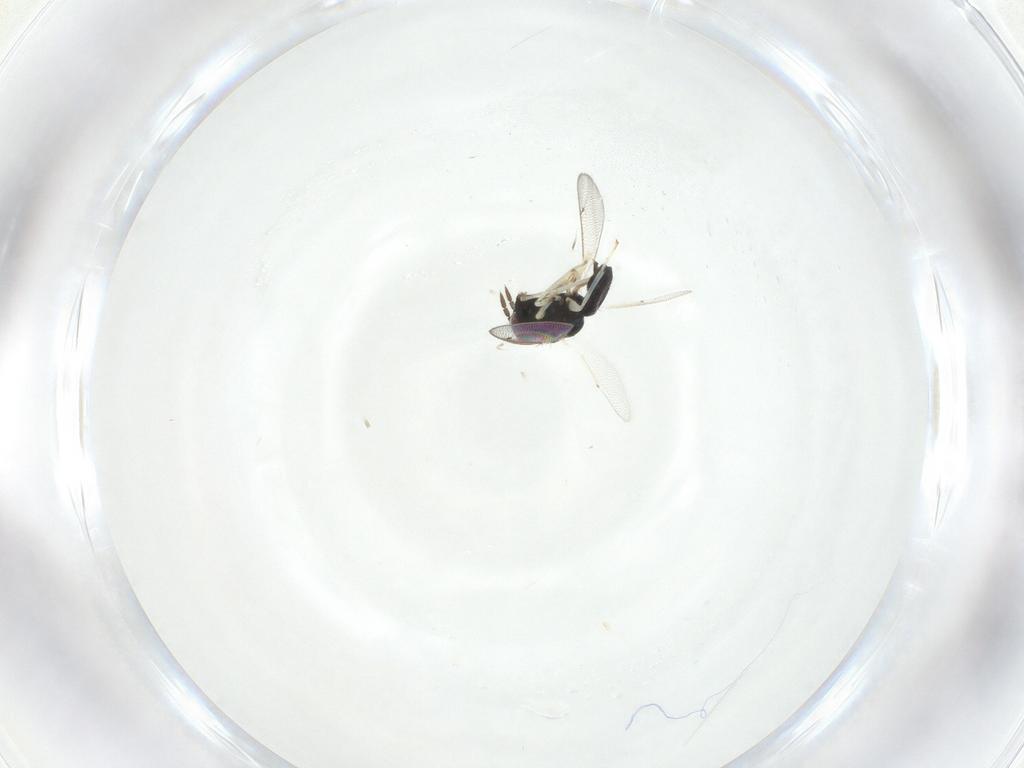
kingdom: Animalia
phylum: Arthropoda
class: Insecta
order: Hymenoptera
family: Eulophidae
